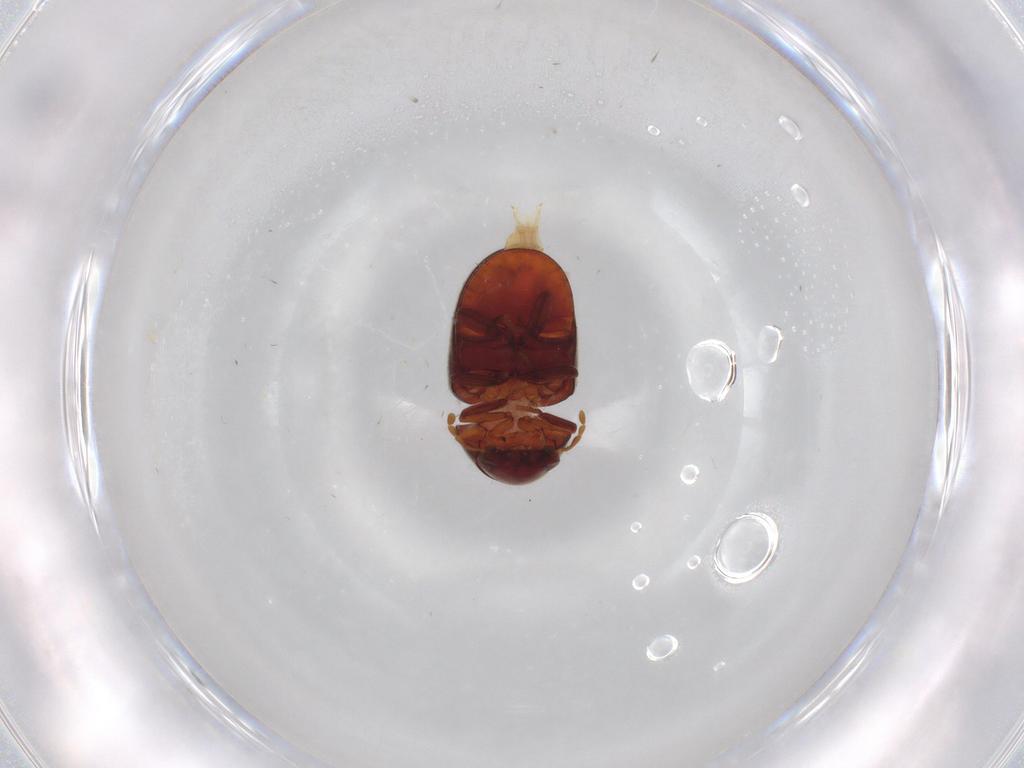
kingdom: Animalia
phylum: Arthropoda
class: Insecta
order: Coleoptera
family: Ptinidae
